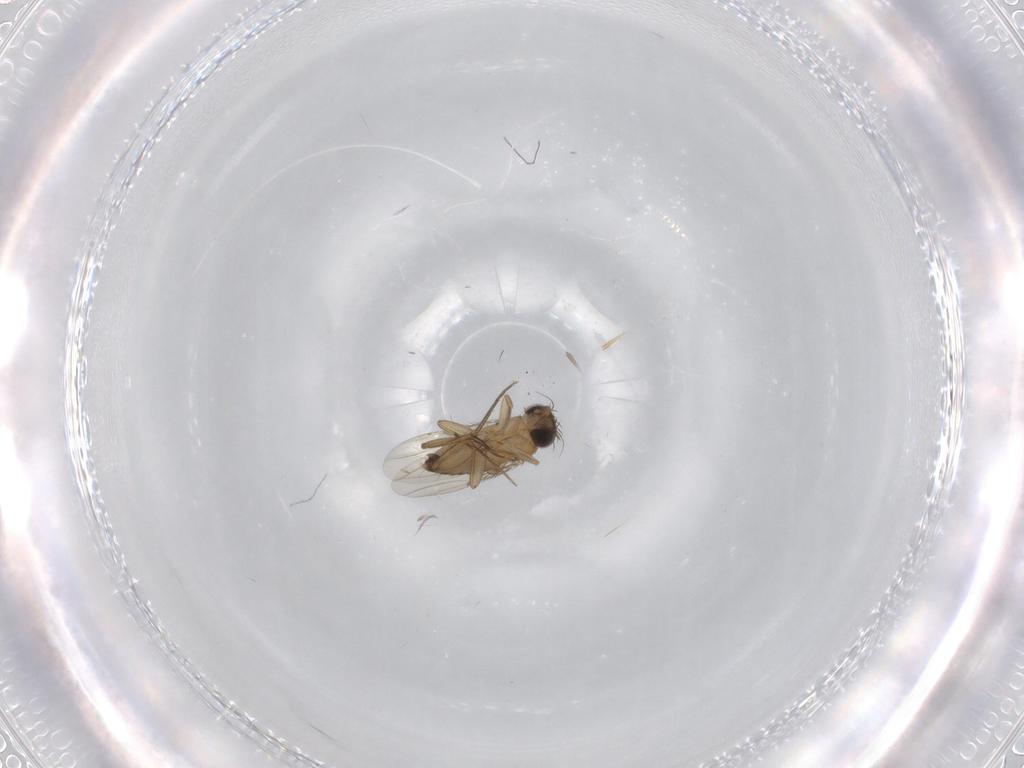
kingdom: Animalia
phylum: Arthropoda
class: Insecta
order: Diptera
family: Phoridae
